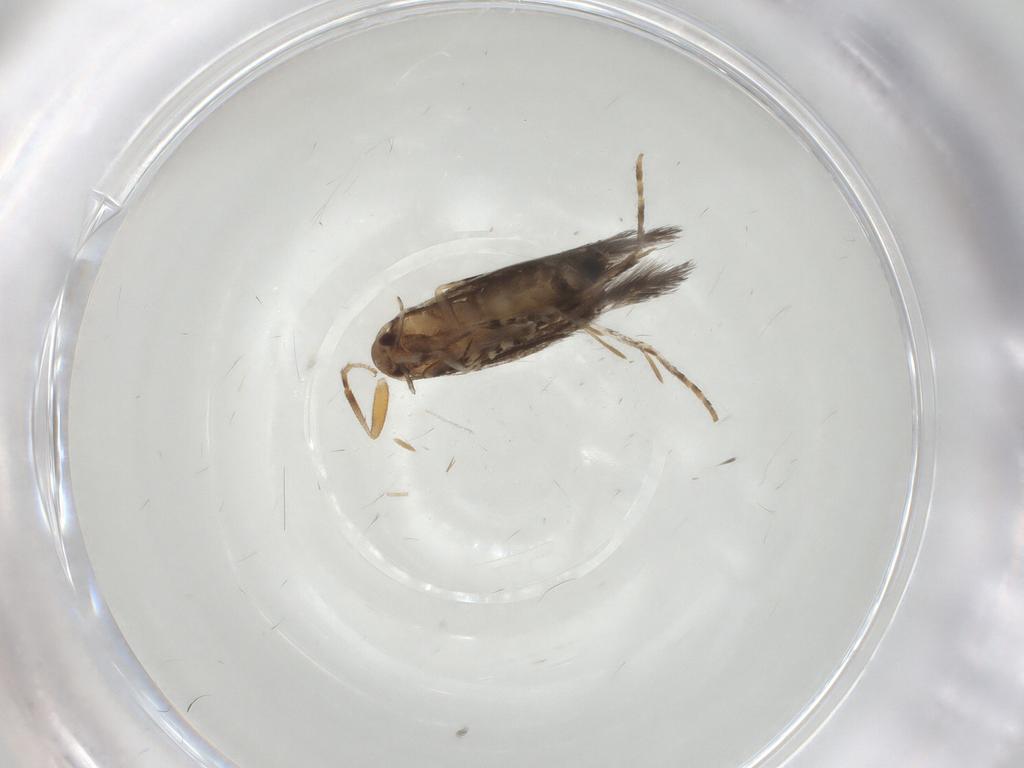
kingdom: Animalia
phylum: Arthropoda
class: Insecta
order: Lepidoptera
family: Elachistidae
